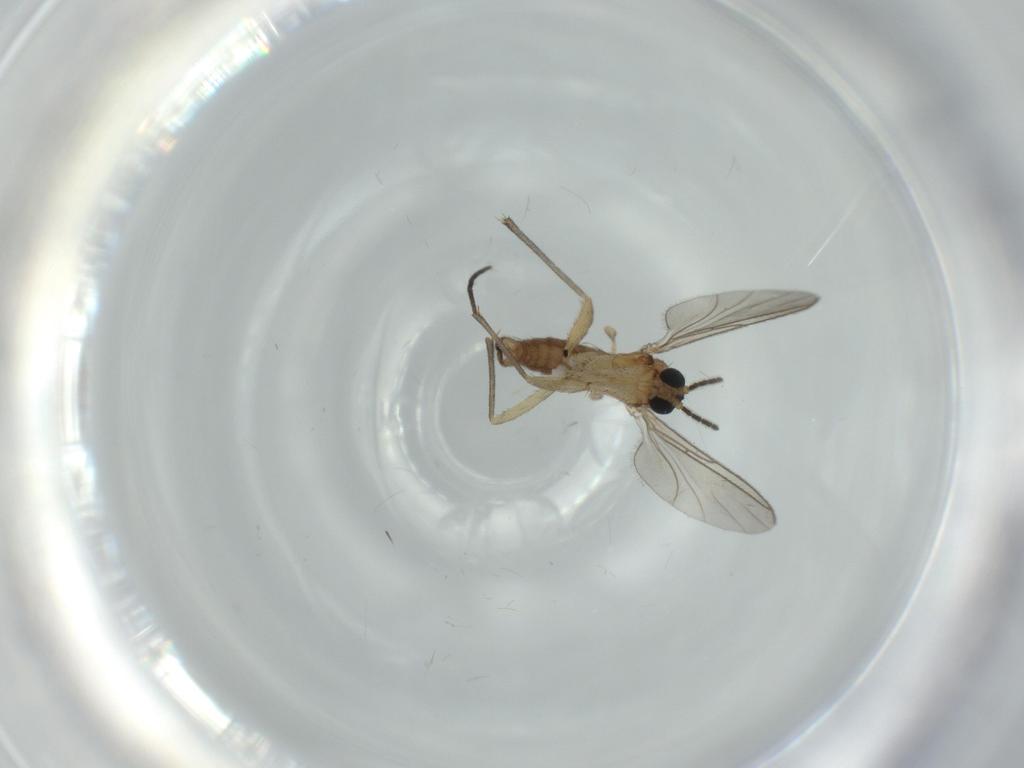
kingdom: Animalia
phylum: Arthropoda
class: Insecta
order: Diptera
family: Sciaridae
